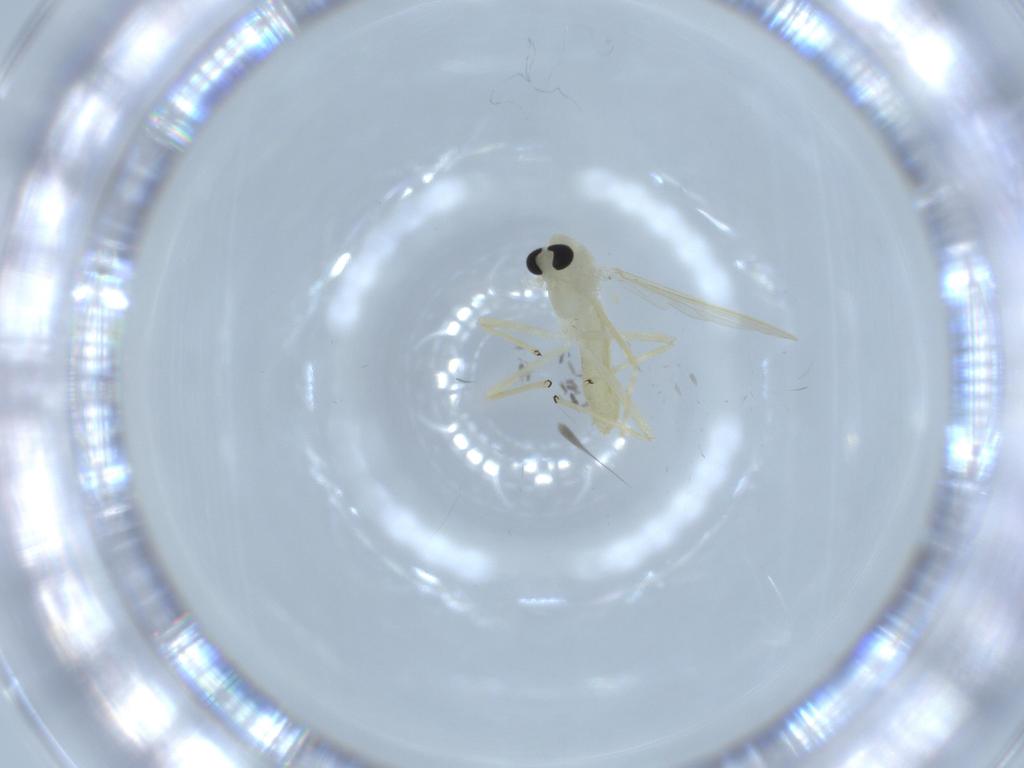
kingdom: Animalia
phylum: Arthropoda
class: Insecta
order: Diptera
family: Chironomidae
